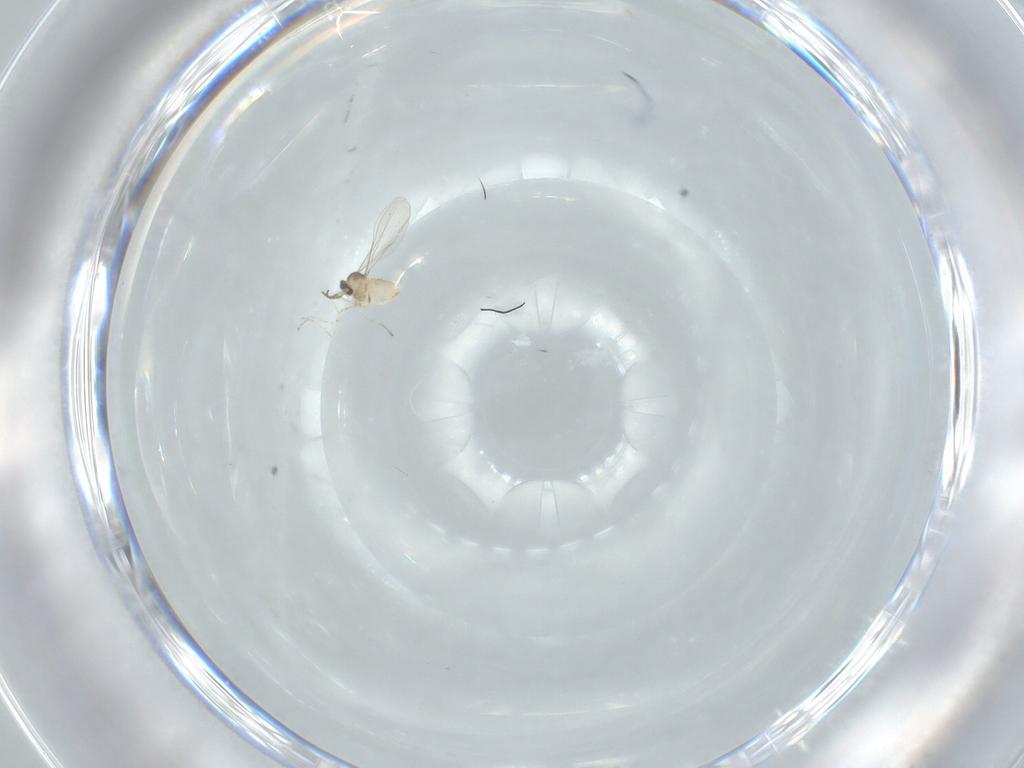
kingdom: Animalia
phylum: Arthropoda
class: Insecta
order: Diptera
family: Cecidomyiidae
